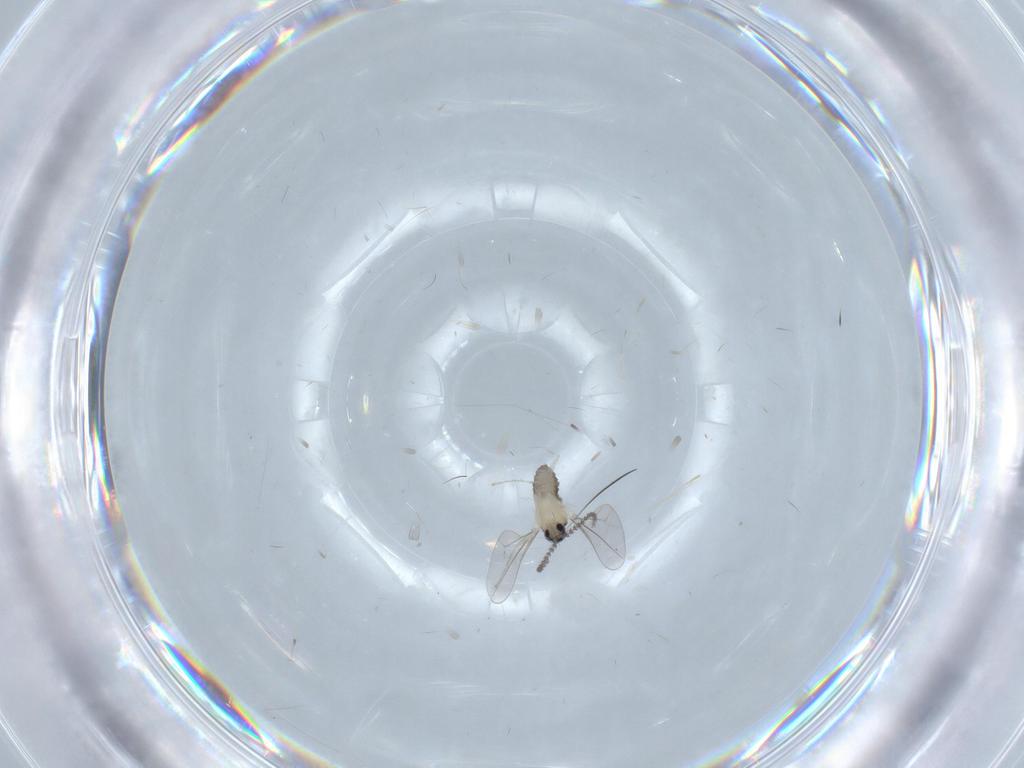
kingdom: Animalia
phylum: Arthropoda
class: Insecta
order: Diptera
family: Cecidomyiidae
